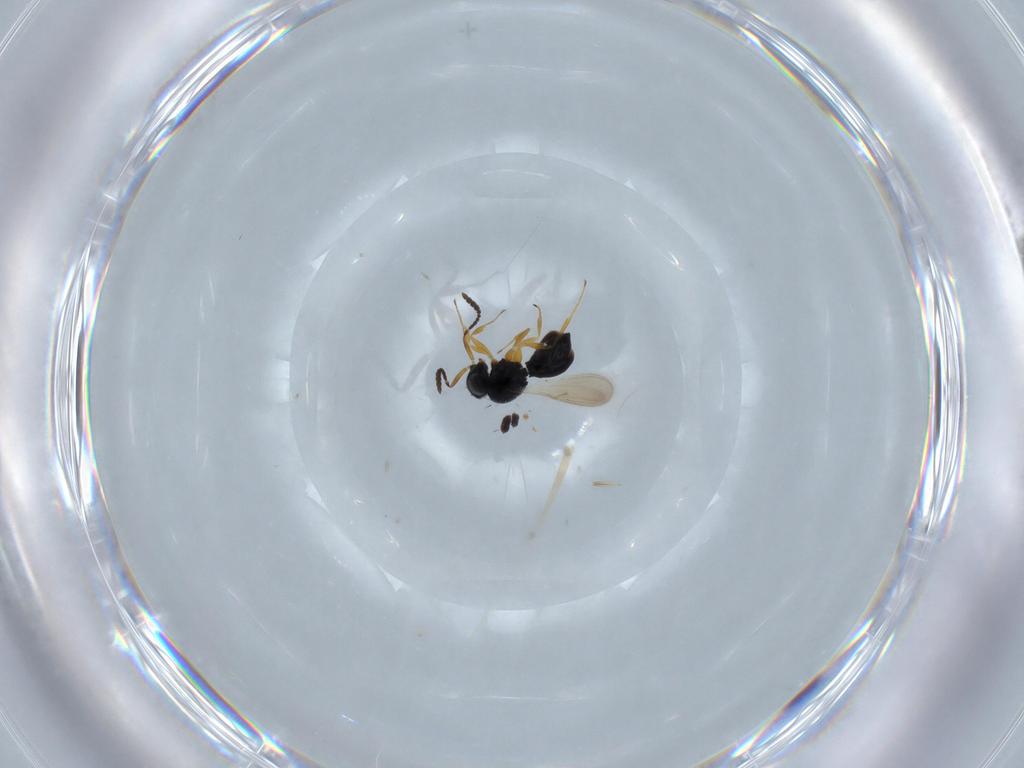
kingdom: Animalia
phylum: Arthropoda
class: Insecta
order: Hymenoptera
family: Scelionidae
